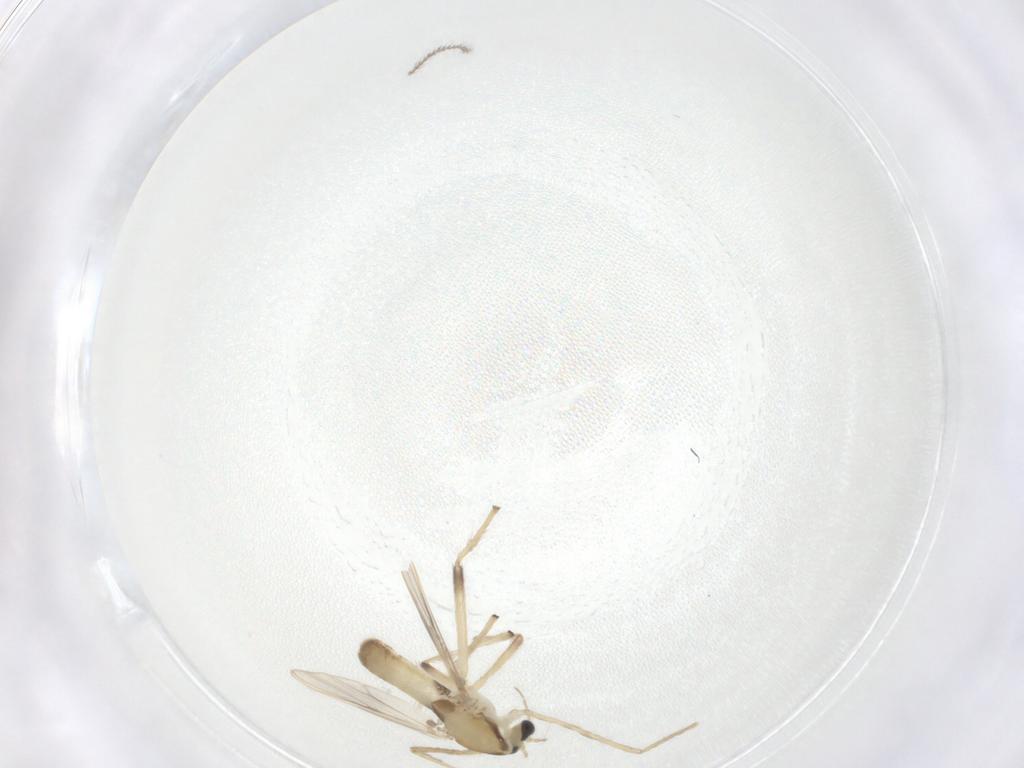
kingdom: Animalia
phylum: Arthropoda
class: Insecta
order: Diptera
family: Chironomidae
